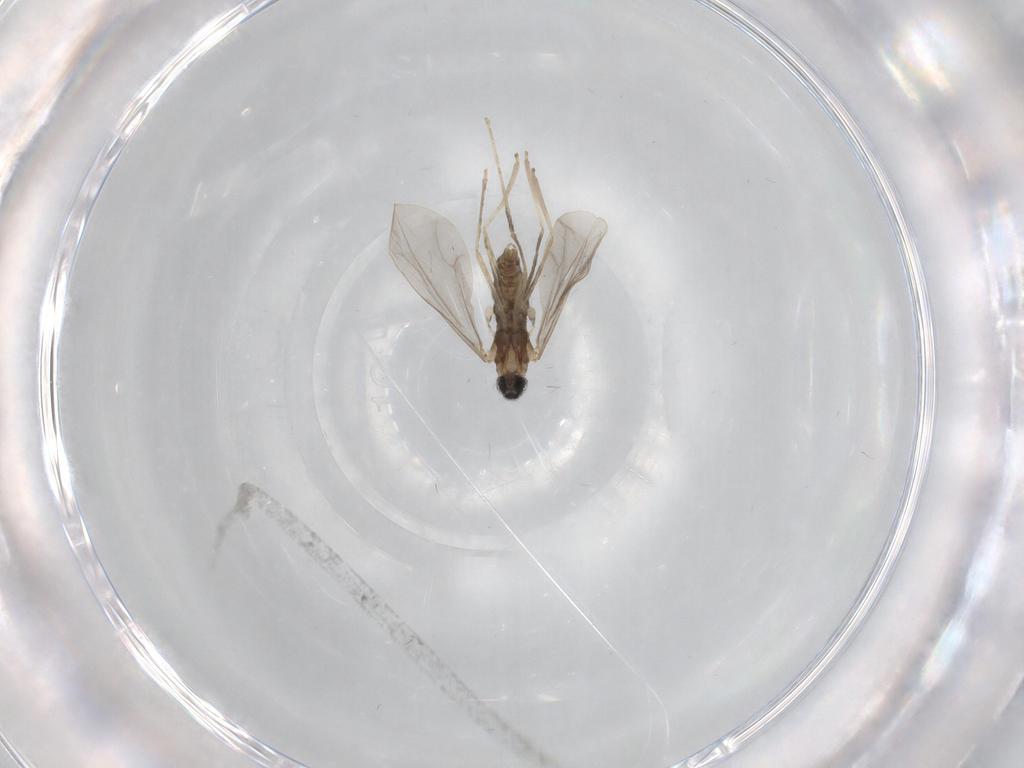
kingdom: Animalia
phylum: Arthropoda
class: Insecta
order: Diptera
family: Cecidomyiidae
